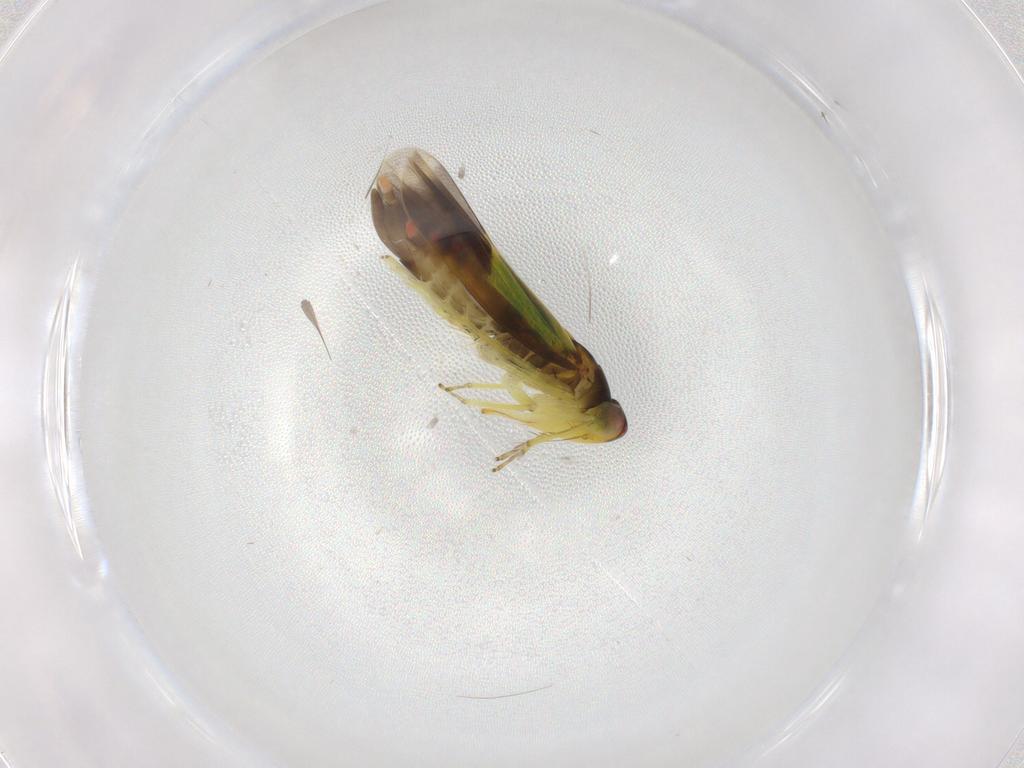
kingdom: Animalia
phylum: Arthropoda
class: Insecta
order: Hemiptera
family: Cicadellidae
